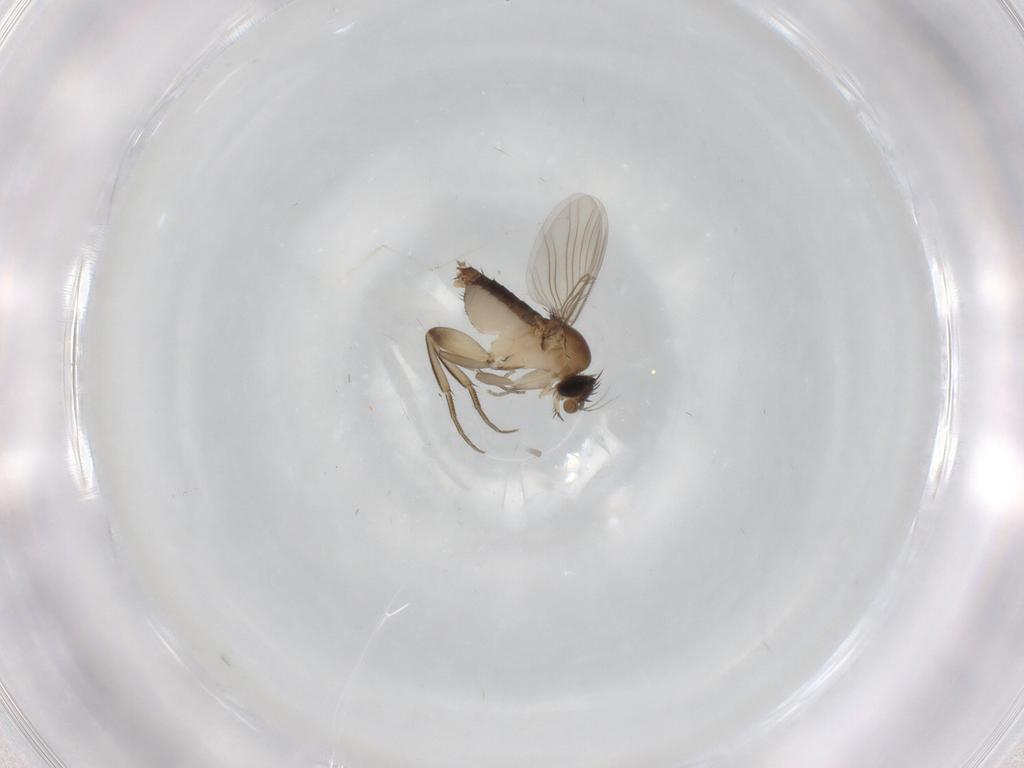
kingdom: Animalia
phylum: Arthropoda
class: Insecta
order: Diptera
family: Phoridae
